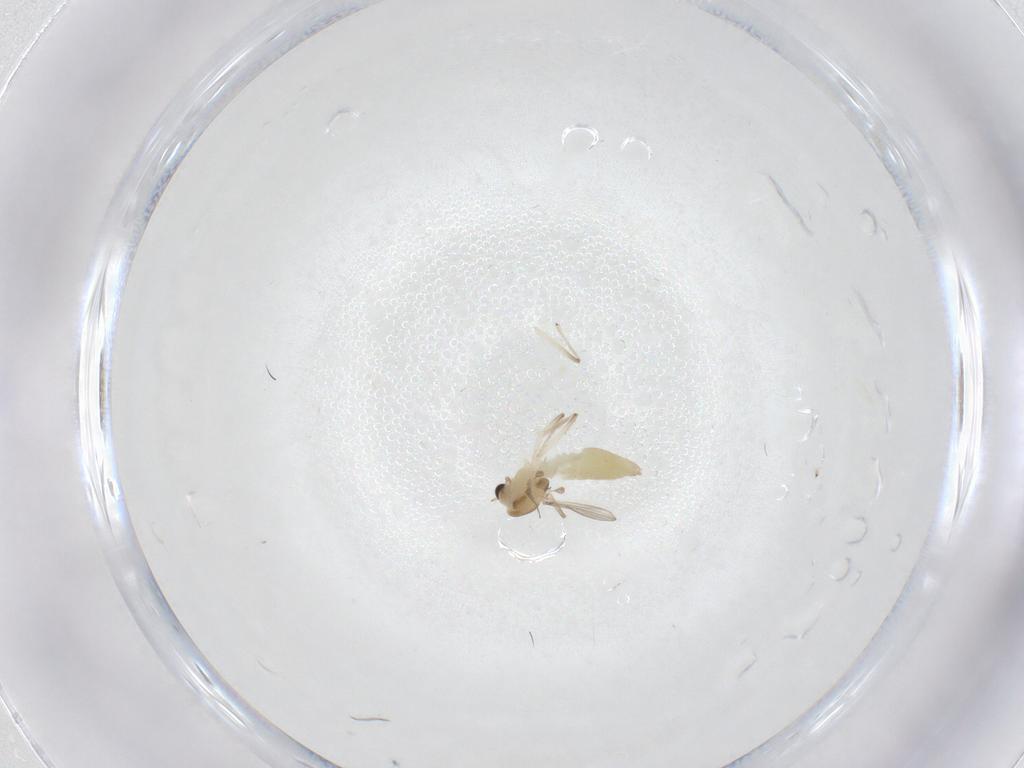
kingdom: Animalia
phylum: Arthropoda
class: Insecta
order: Diptera
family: Chironomidae
